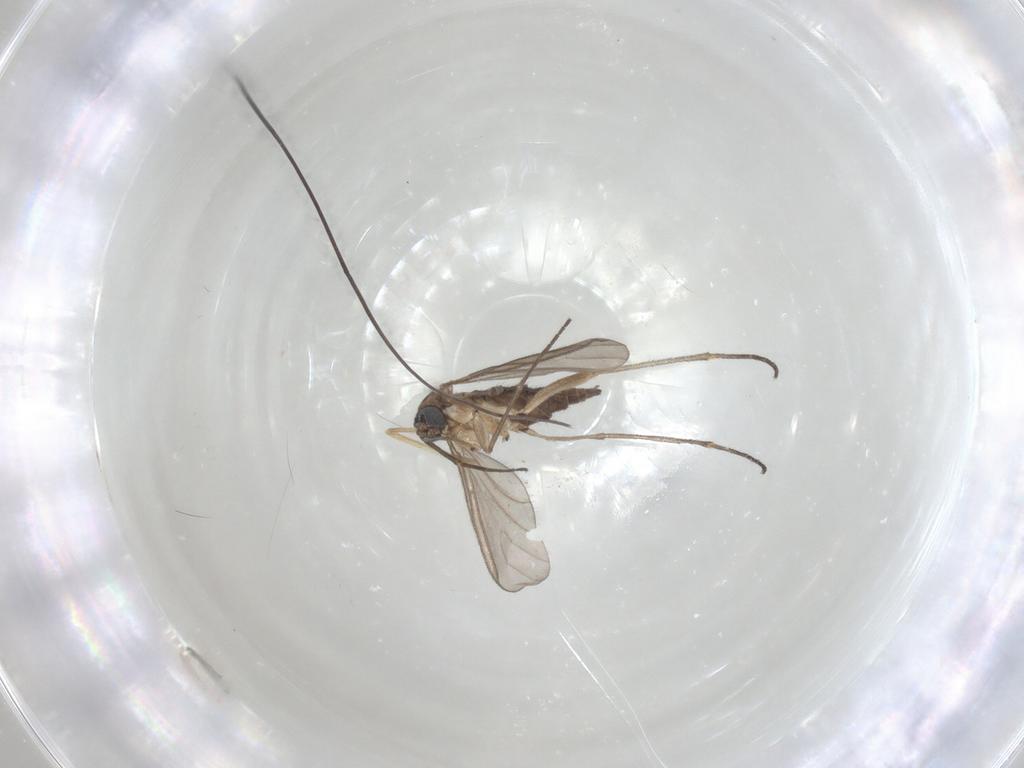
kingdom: Animalia
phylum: Arthropoda
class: Insecta
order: Diptera
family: Sciaridae
